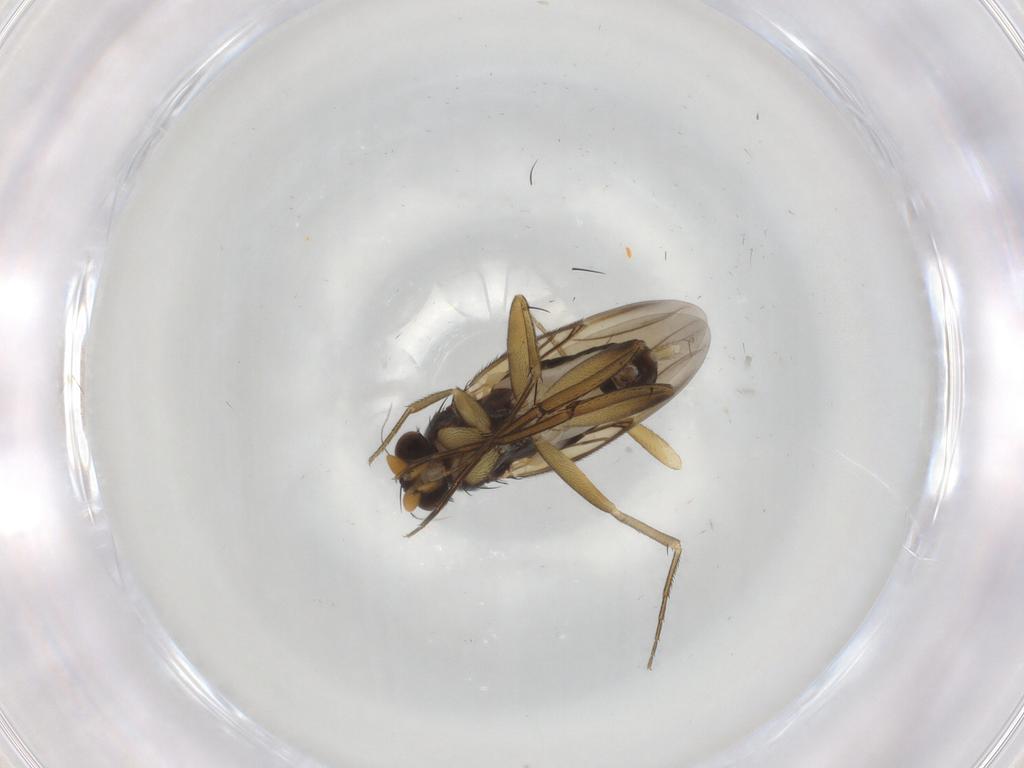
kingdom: Animalia
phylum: Arthropoda
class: Insecta
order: Diptera
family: Phoridae
